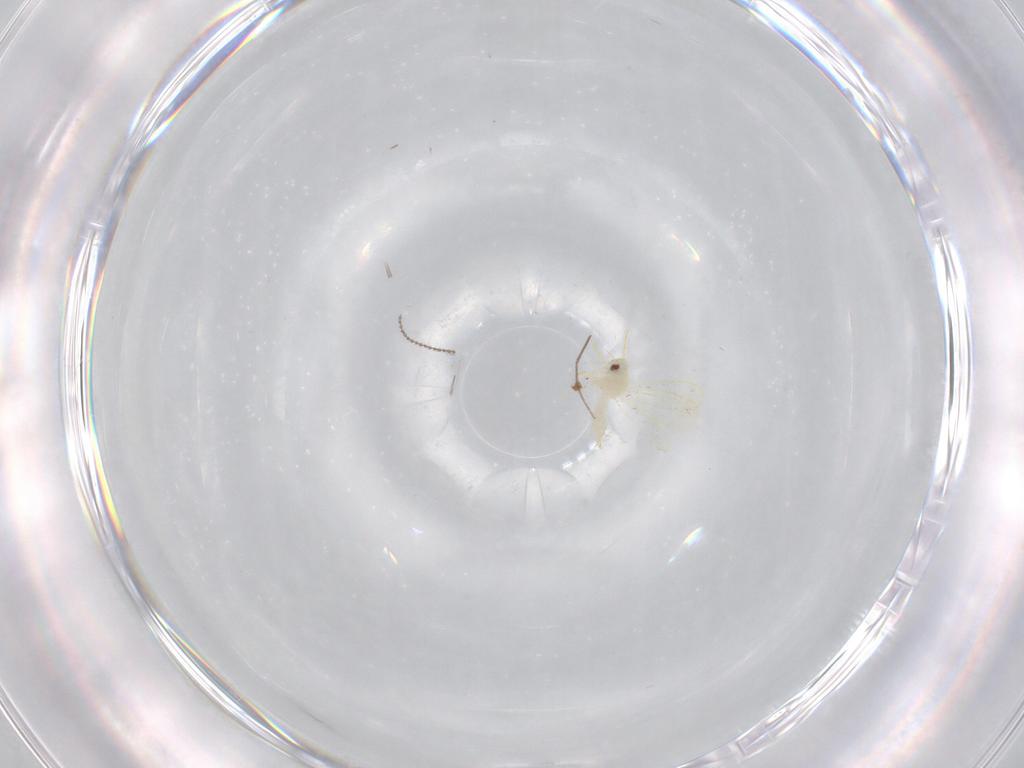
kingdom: Animalia
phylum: Arthropoda
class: Insecta
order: Hemiptera
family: Aleyrodidae
